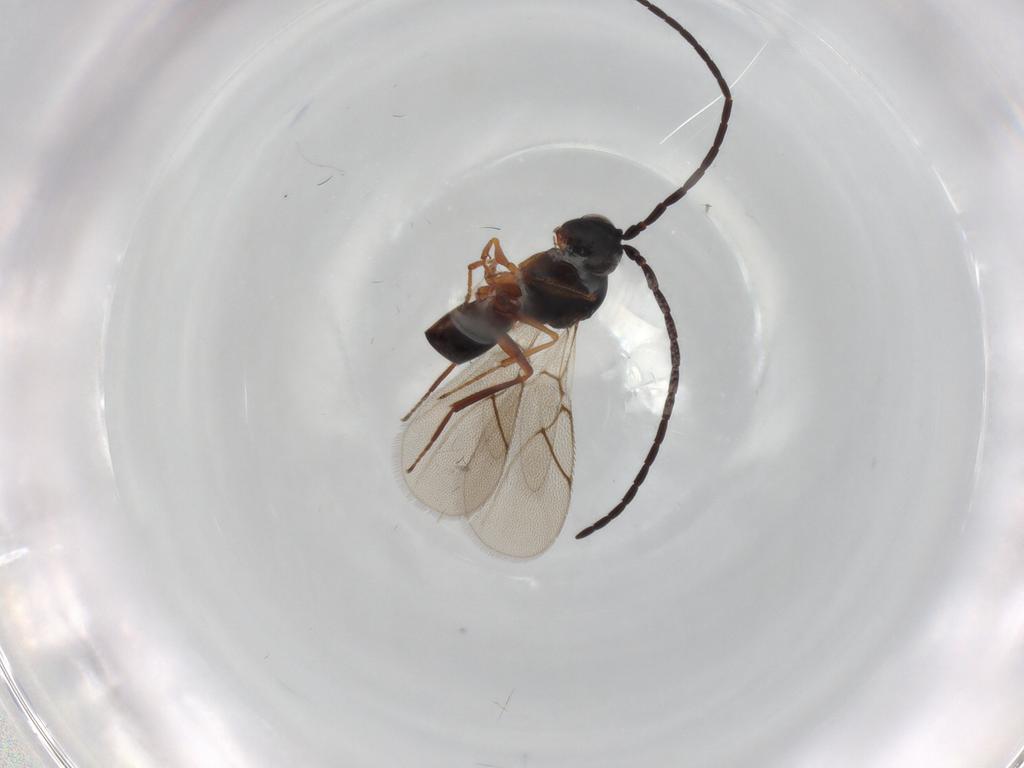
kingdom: Animalia
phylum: Arthropoda
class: Insecta
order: Hymenoptera
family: Figitidae
